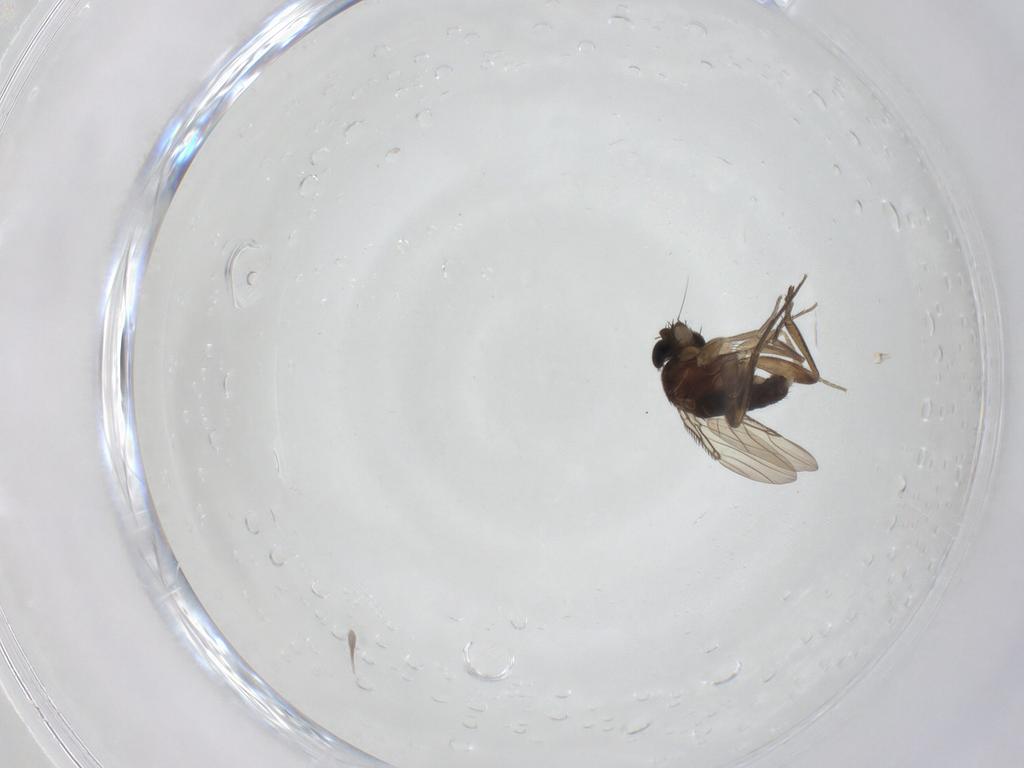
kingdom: Animalia
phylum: Arthropoda
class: Insecta
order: Diptera
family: Phoridae
